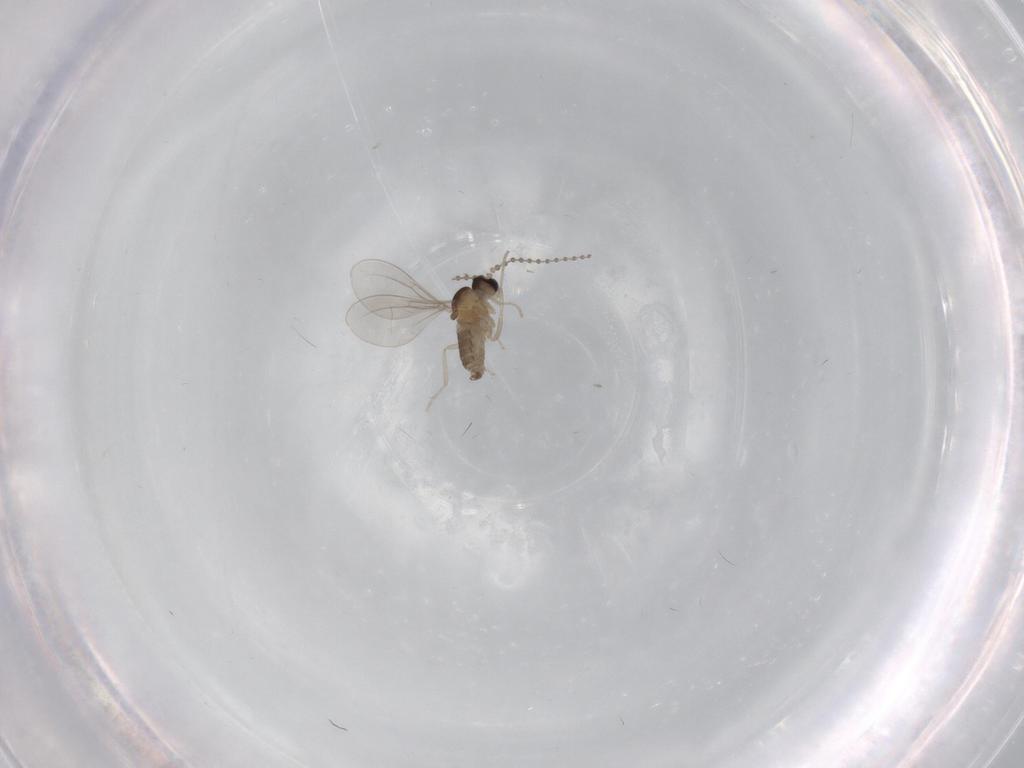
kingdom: Animalia
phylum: Arthropoda
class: Insecta
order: Diptera
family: Cecidomyiidae
